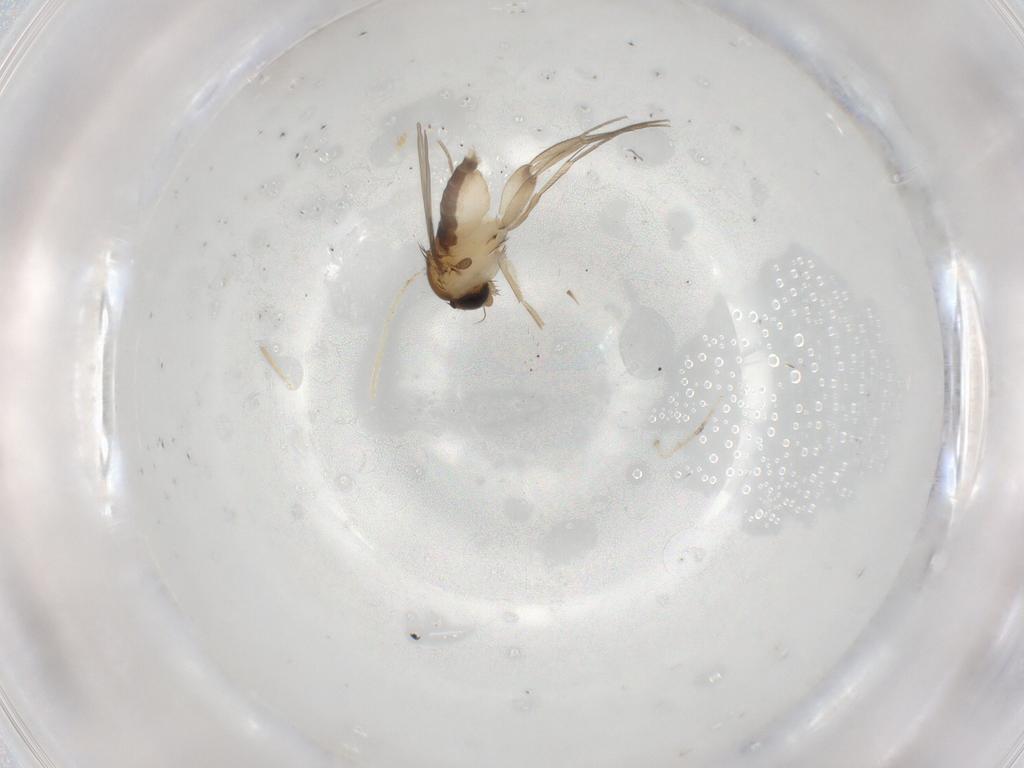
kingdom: Animalia
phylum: Arthropoda
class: Insecta
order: Diptera
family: Phoridae
